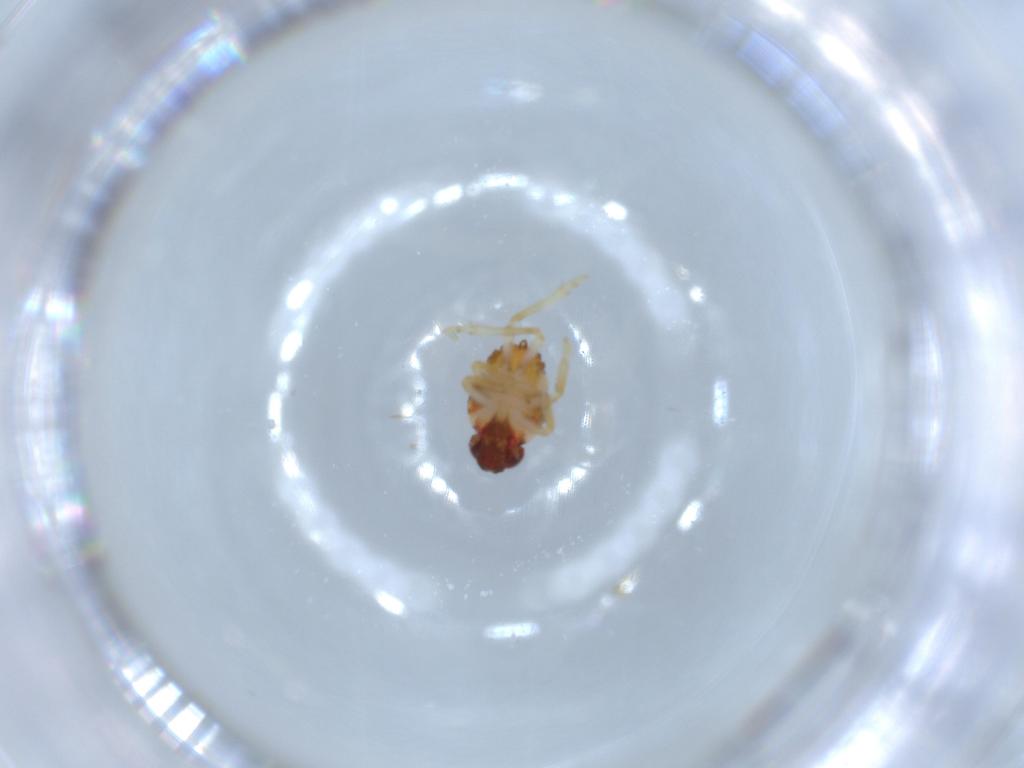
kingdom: Animalia
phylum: Arthropoda
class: Insecta
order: Hemiptera
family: Issidae
